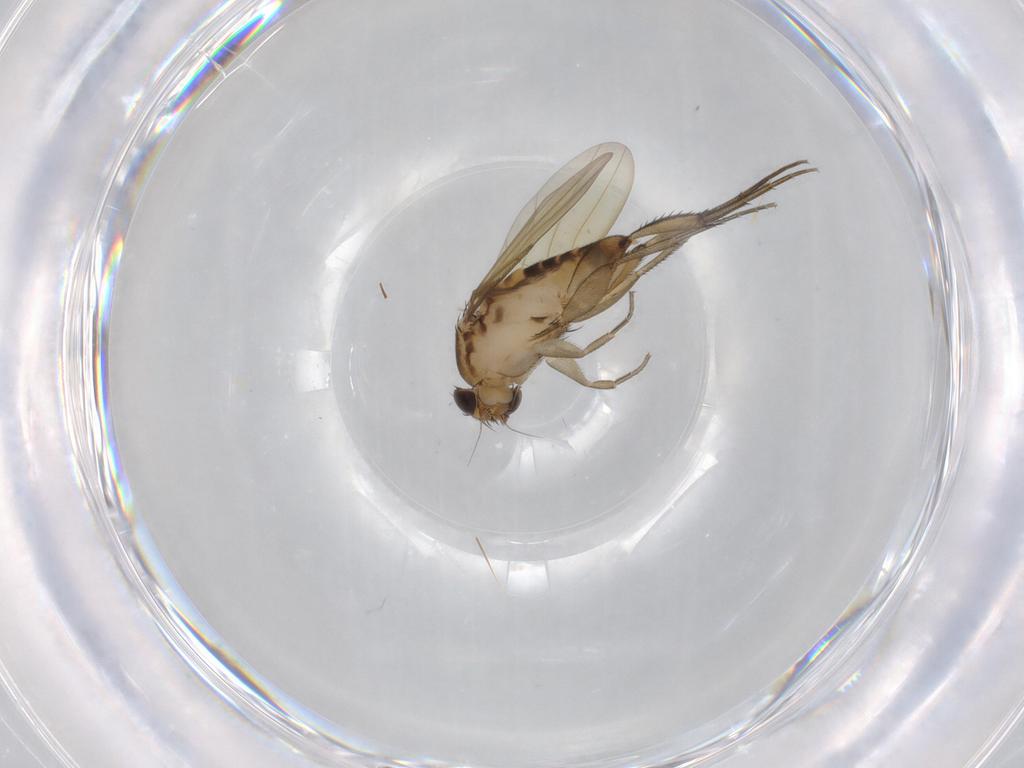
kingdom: Animalia
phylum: Arthropoda
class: Insecta
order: Diptera
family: Phoridae
